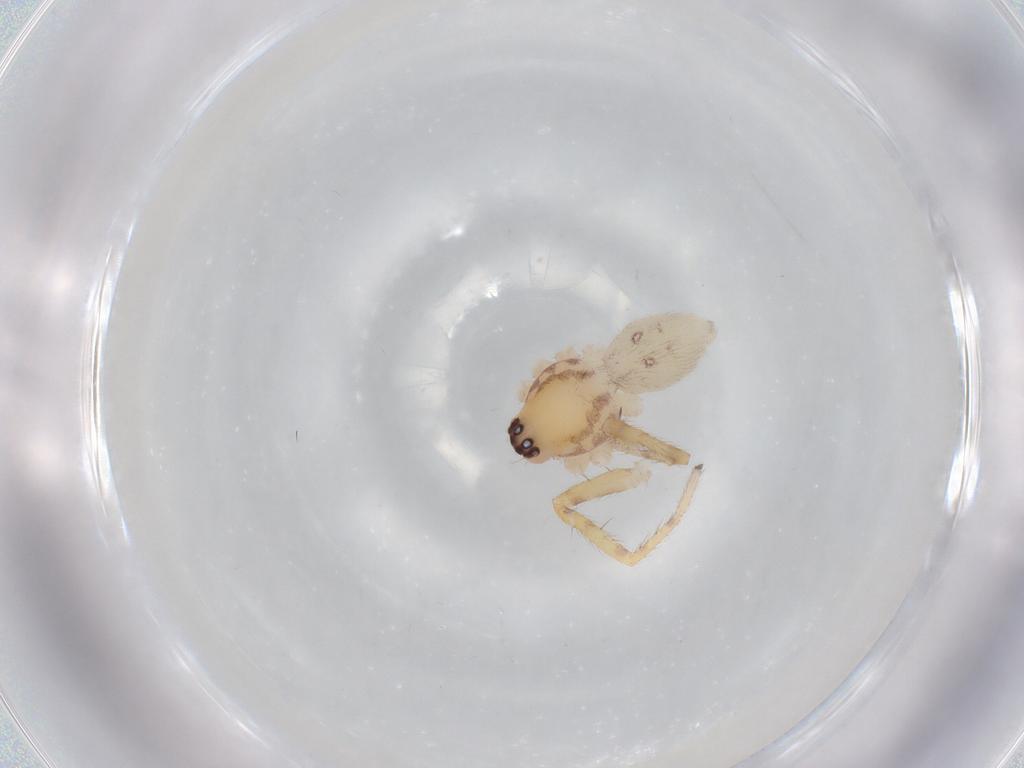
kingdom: Animalia
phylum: Arthropoda
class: Arachnida
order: Araneae
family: Corinnidae
